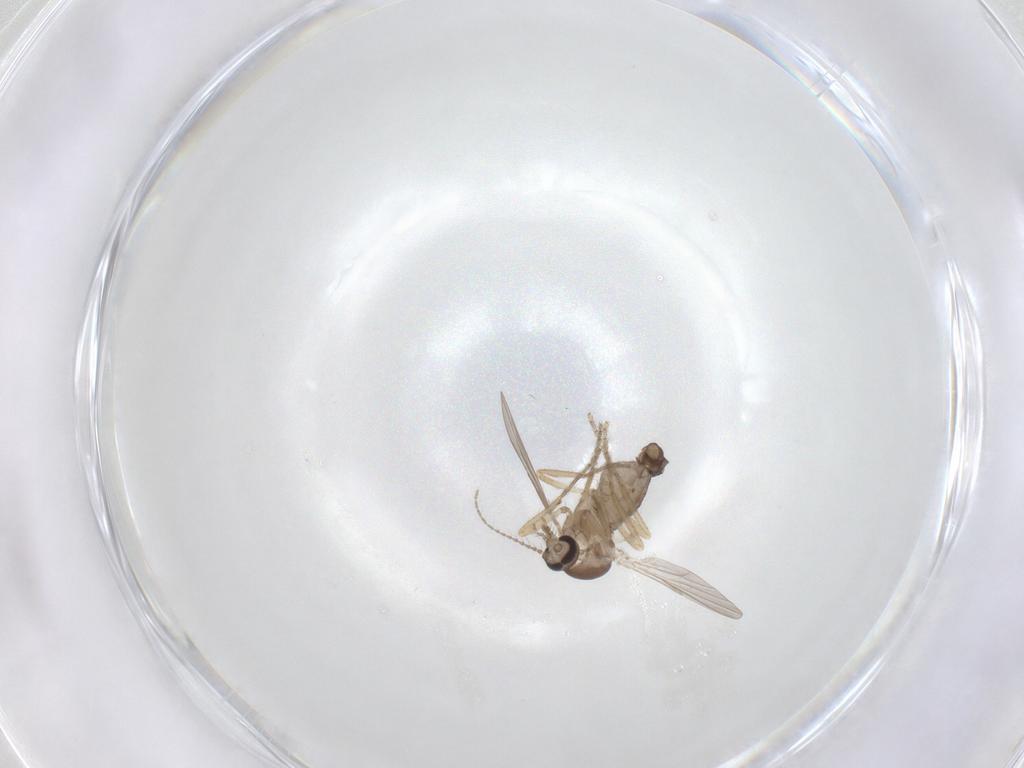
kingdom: Animalia
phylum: Arthropoda
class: Insecta
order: Diptera
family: Ceratopogonidae
